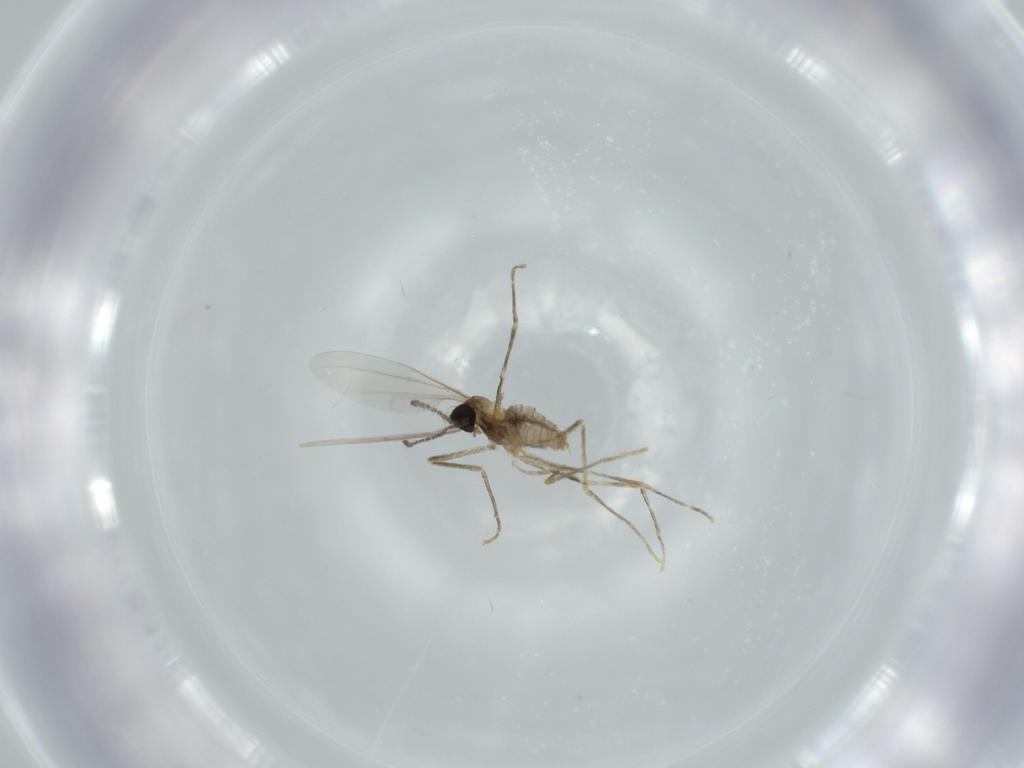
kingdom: Animalia
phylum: Arthropoda
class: Insecta
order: Diptera
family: Cecidomyiidae
